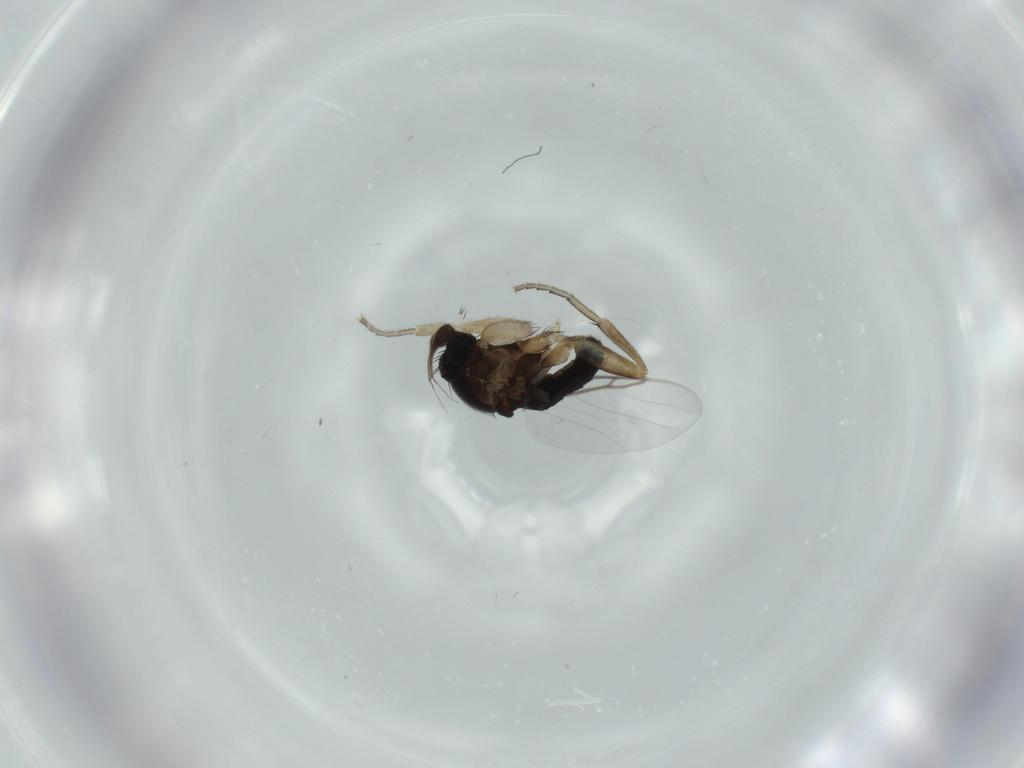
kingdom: Animalia
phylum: Arthropoda
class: Insecta
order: Diptera
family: Phoridae
